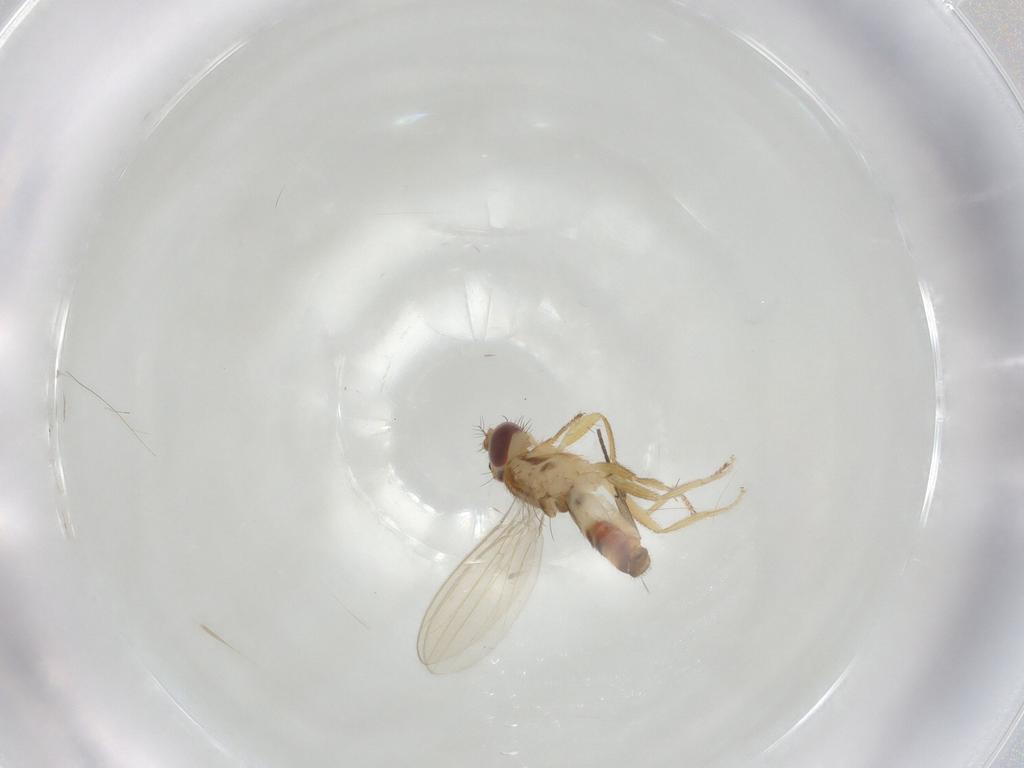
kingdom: Animalia
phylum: Arthropoda
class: Insecta
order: Diptera
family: Periscelididae
